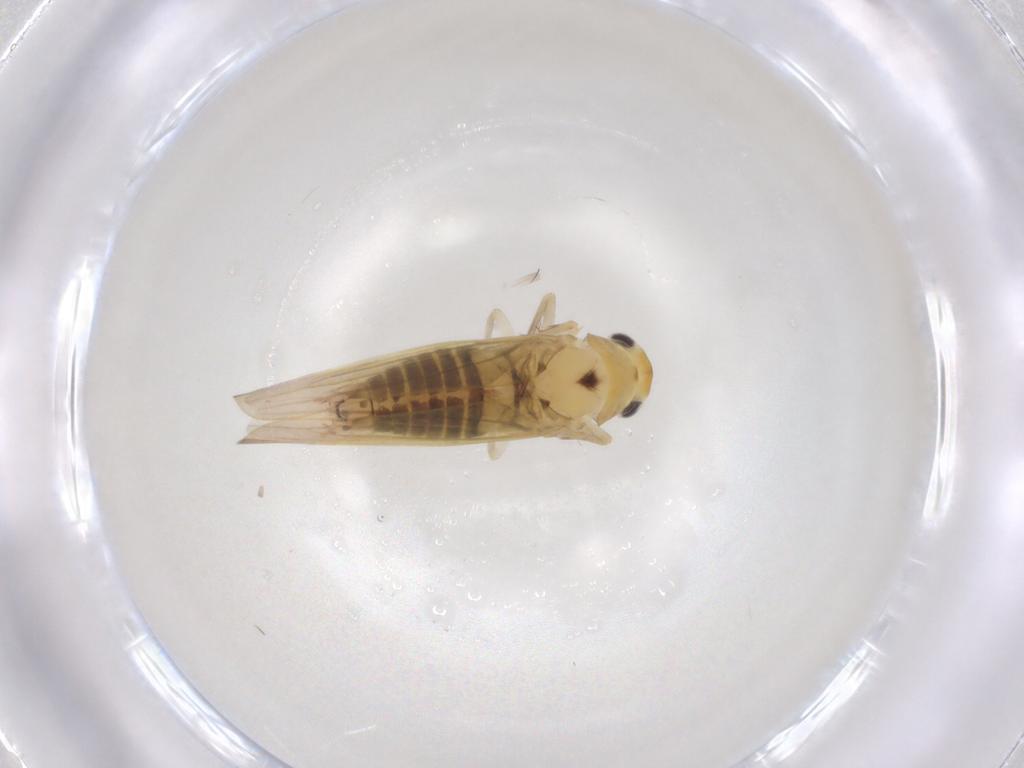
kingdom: Animalia
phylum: Arthropoda
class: Insecta
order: Hemiptera
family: Cicadellidae
